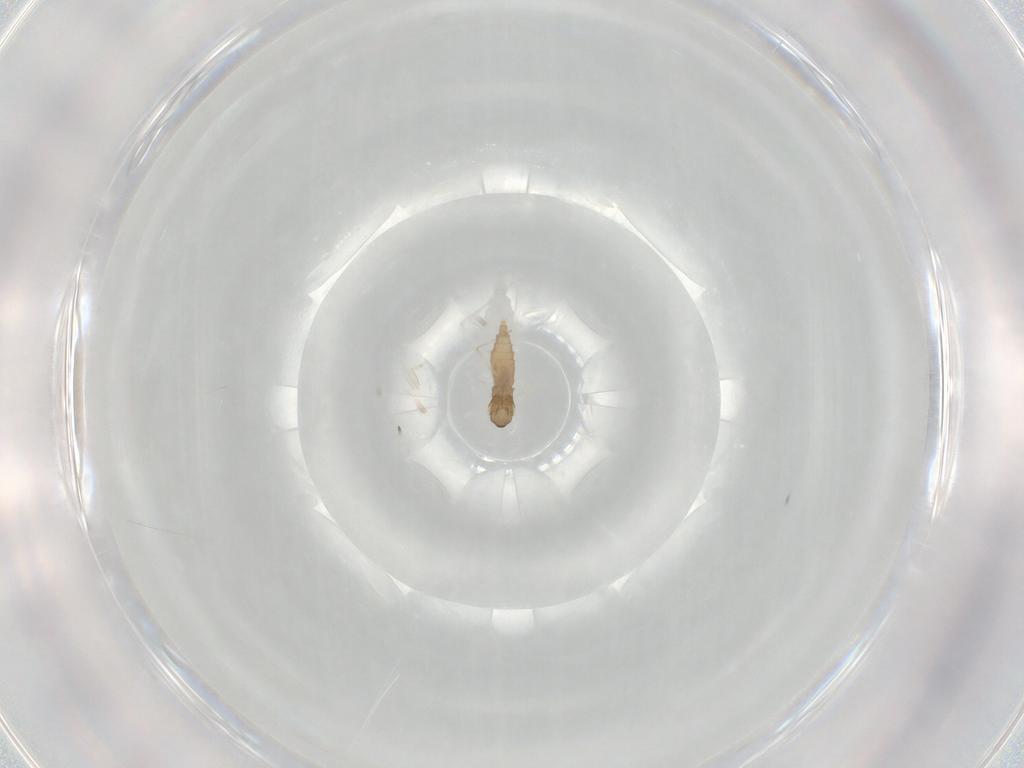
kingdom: Animalia
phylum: Arthropoda
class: Insecta
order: Diptera
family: Cecidomyiidae
